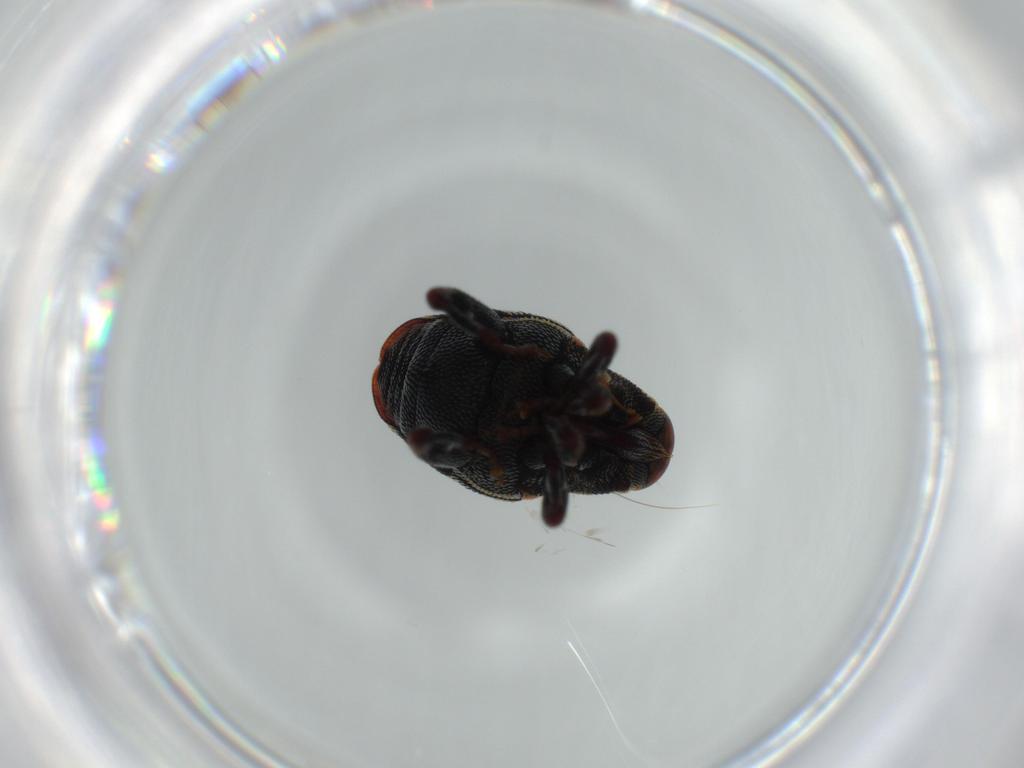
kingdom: Animalia
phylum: Arthropoda
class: Insecta
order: Coleoptera
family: Curculionidae
